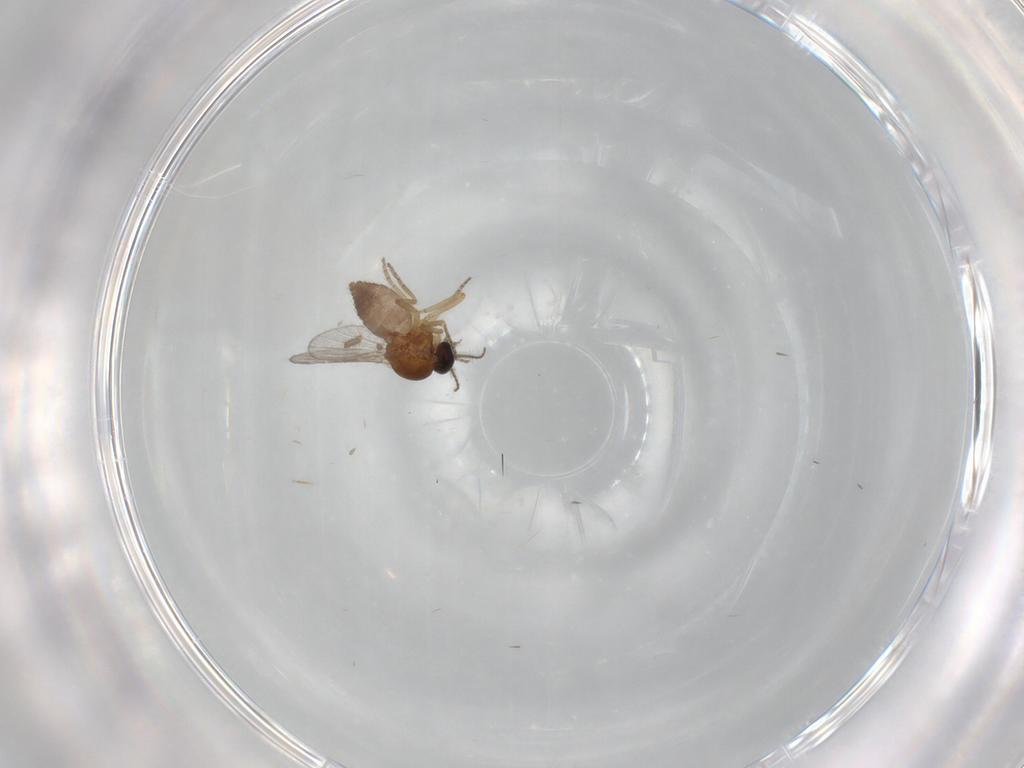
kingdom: Animalia
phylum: Arthropoda
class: Insecta
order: Diptera
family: Ceratopogonidae
